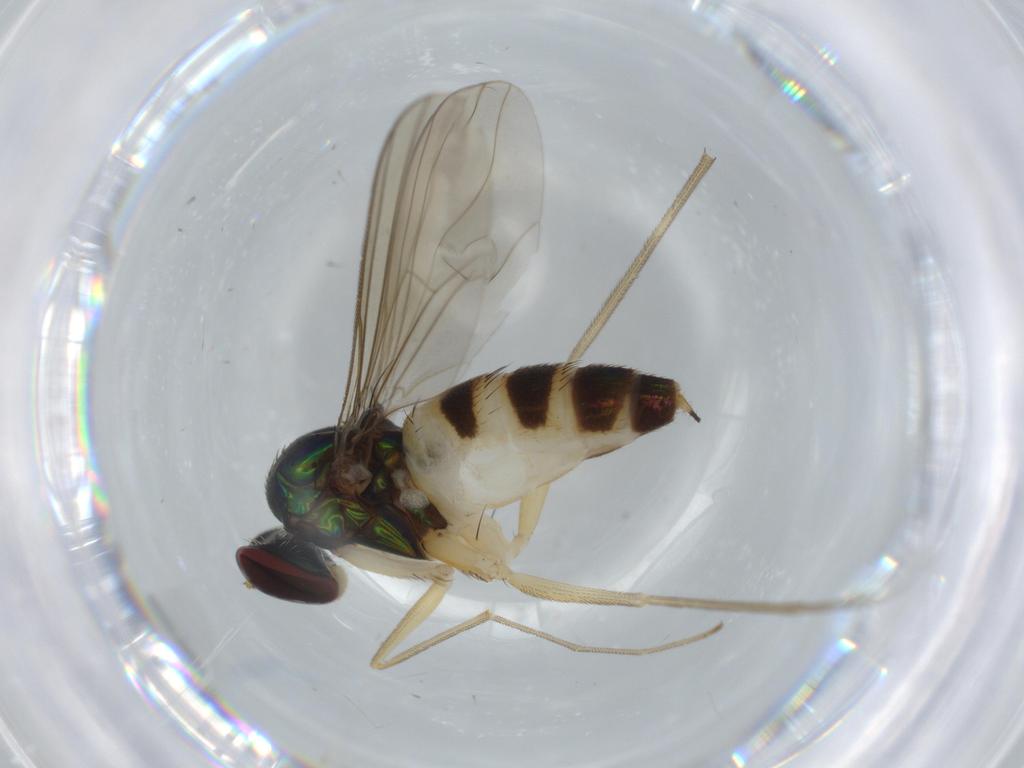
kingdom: Animalia
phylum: Arthropoda
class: Insecta
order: Diptera
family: Dolichopodidae
